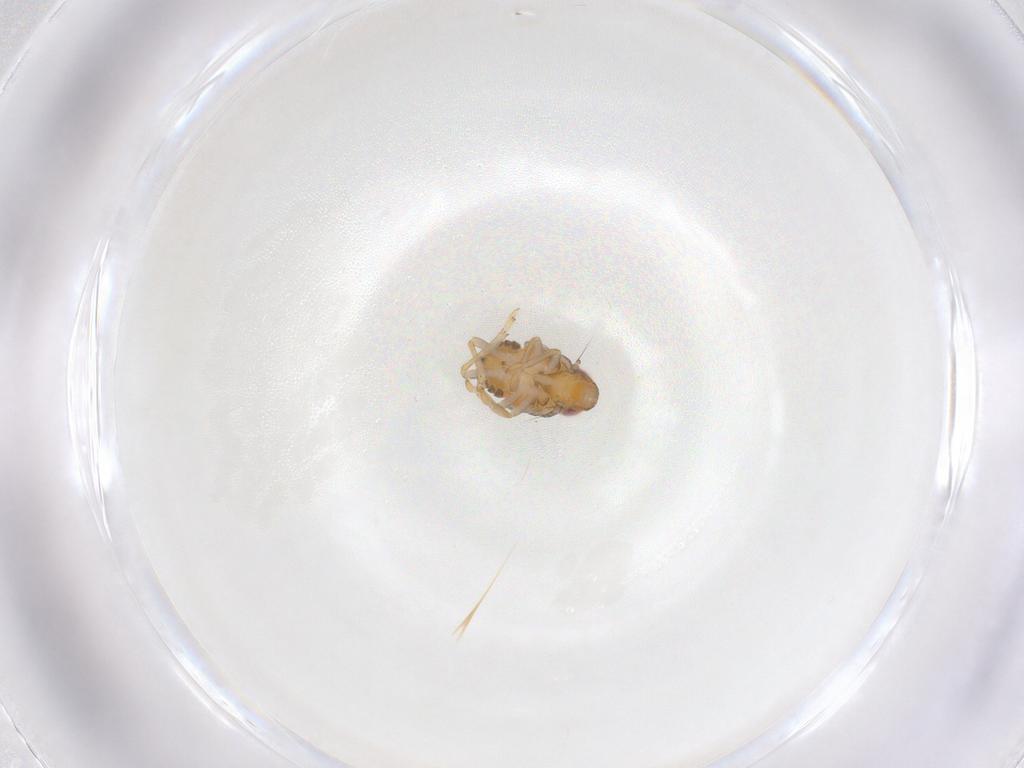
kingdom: Animalia
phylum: Arthropoda
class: Insecta
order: Hemiptera
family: Issidae
